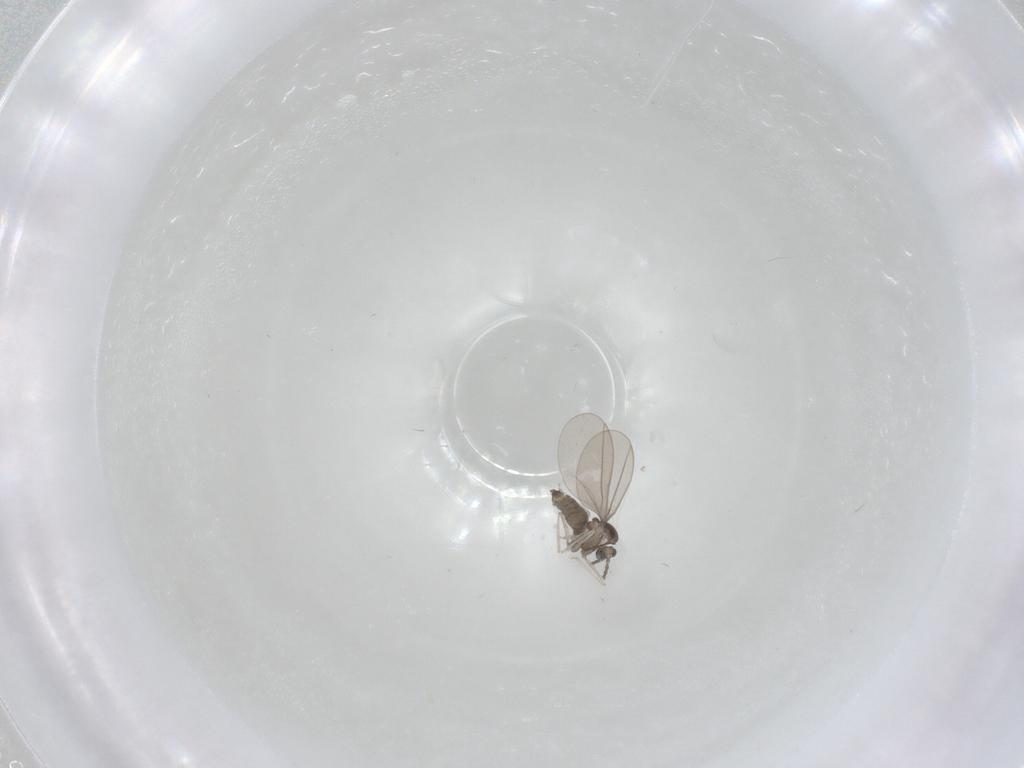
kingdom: Animalia
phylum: Arthropoda
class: Insecta
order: Diptera
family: Cecidomyiidae
